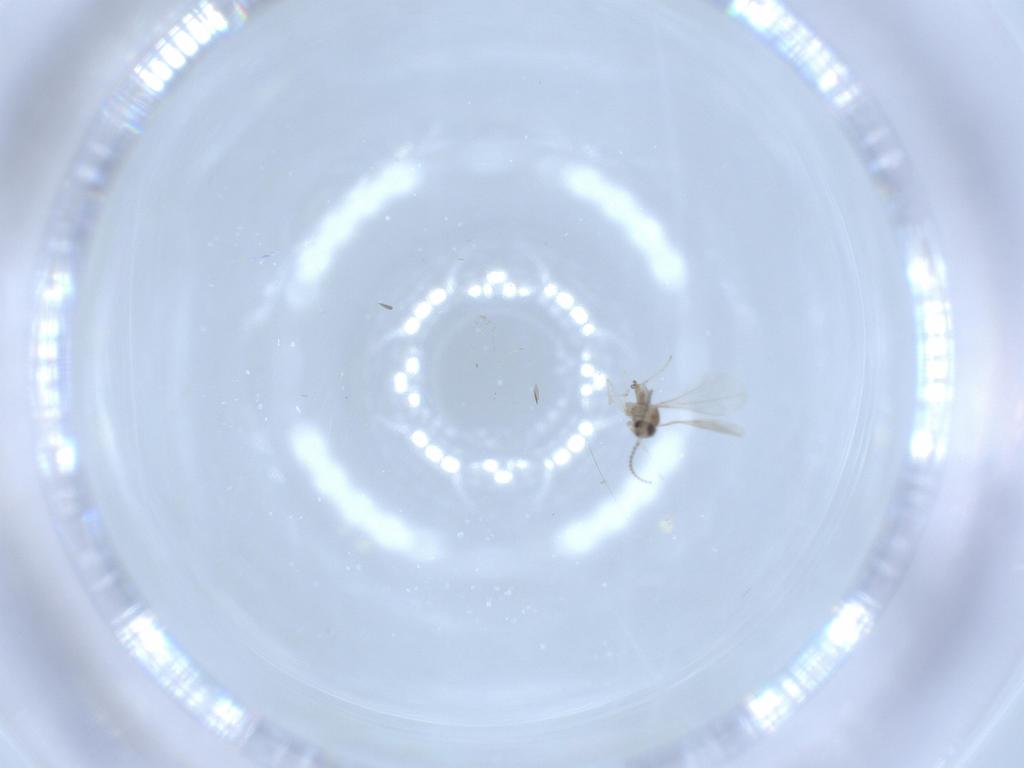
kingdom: Animalia
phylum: Arthropoda
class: Insecta
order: Diptera
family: Cecidomyiidae
